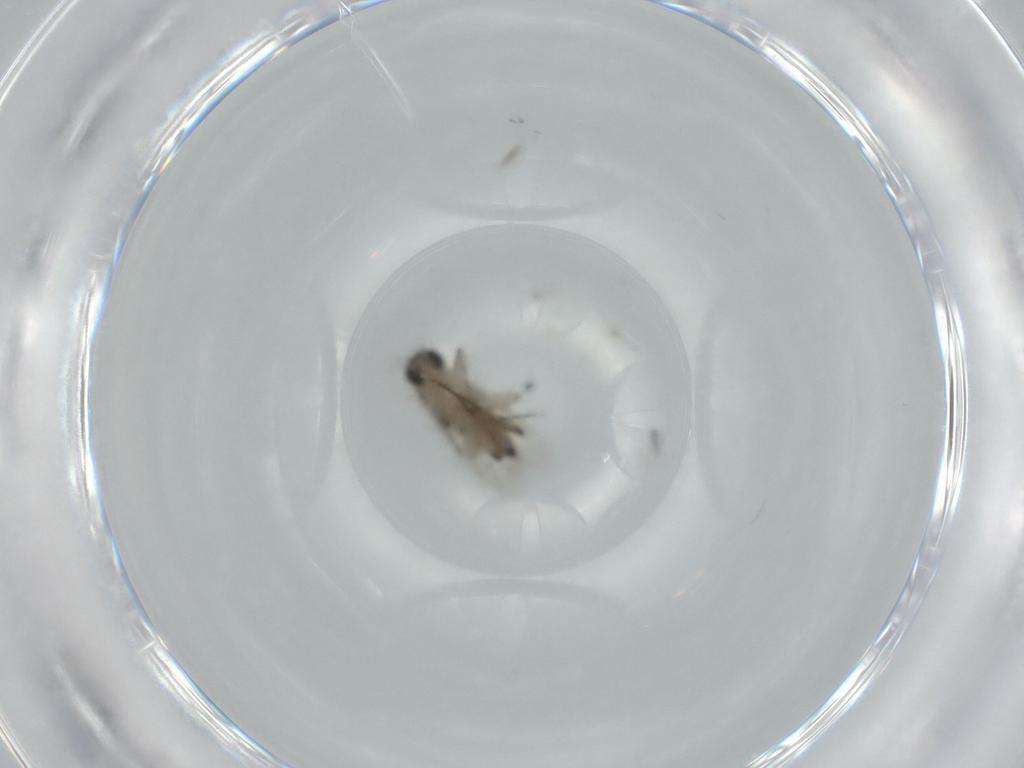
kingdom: Animalia
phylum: Arthropoda
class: Insecta
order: Diptera
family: Phoridae
